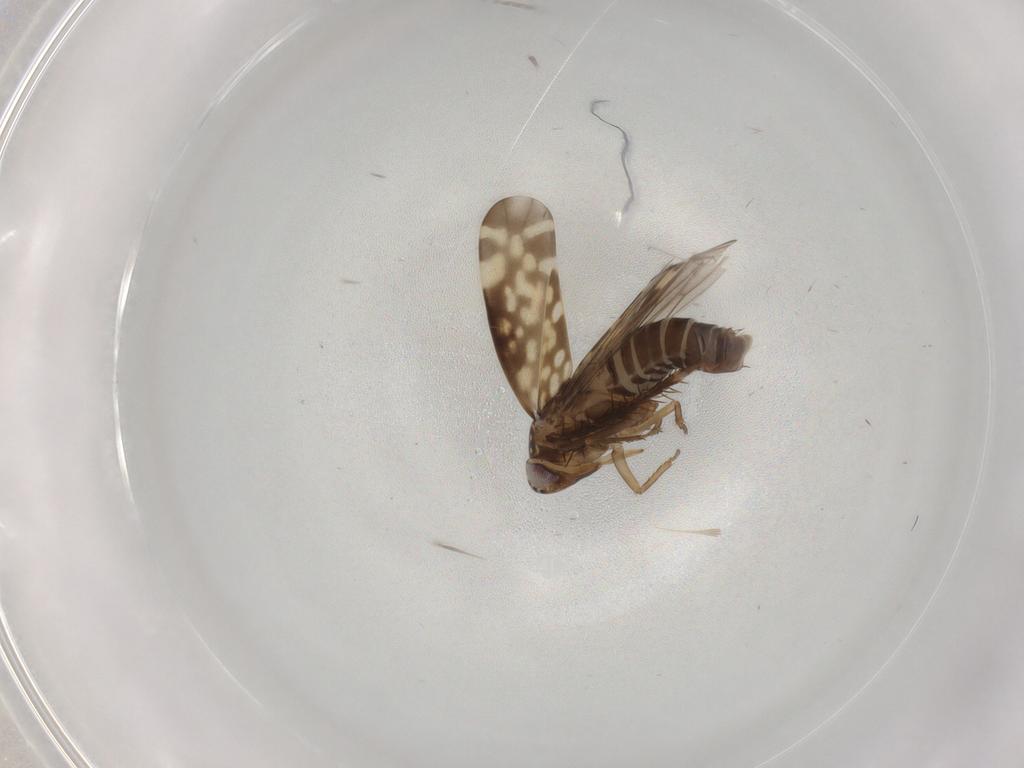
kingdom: Animalia
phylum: Arthropoda
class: Insecta
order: Hemiptera
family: Cicadellidae
